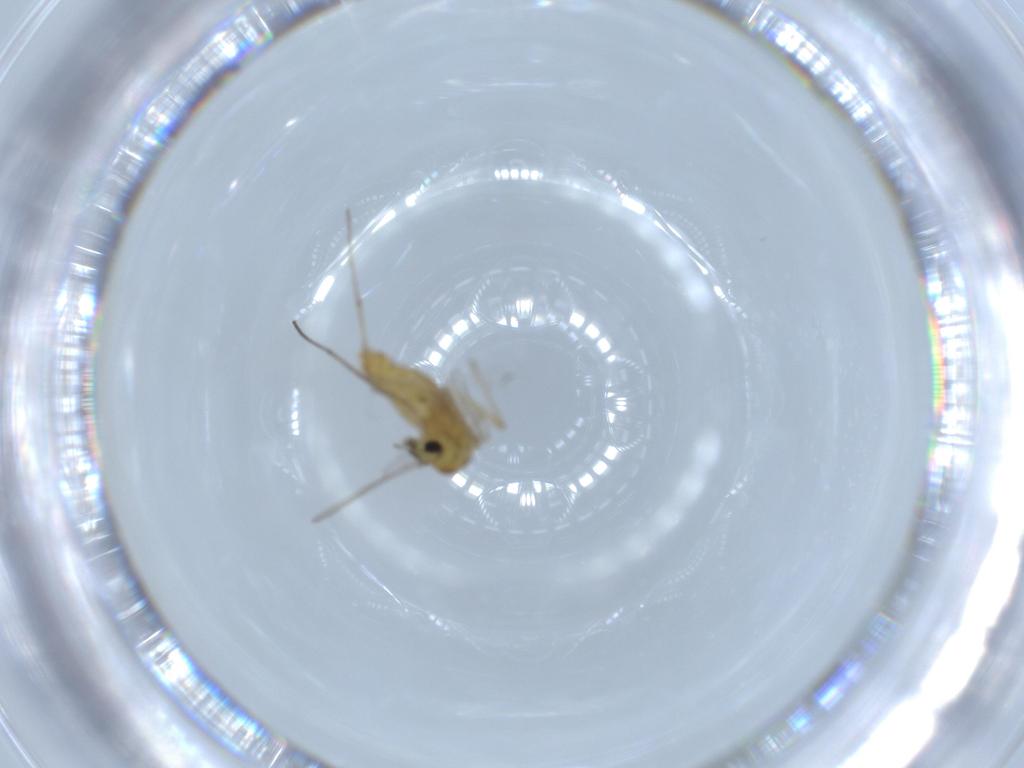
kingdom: Animalia
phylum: Arthropoda
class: Insecta
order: Diptera
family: Chironomidae
